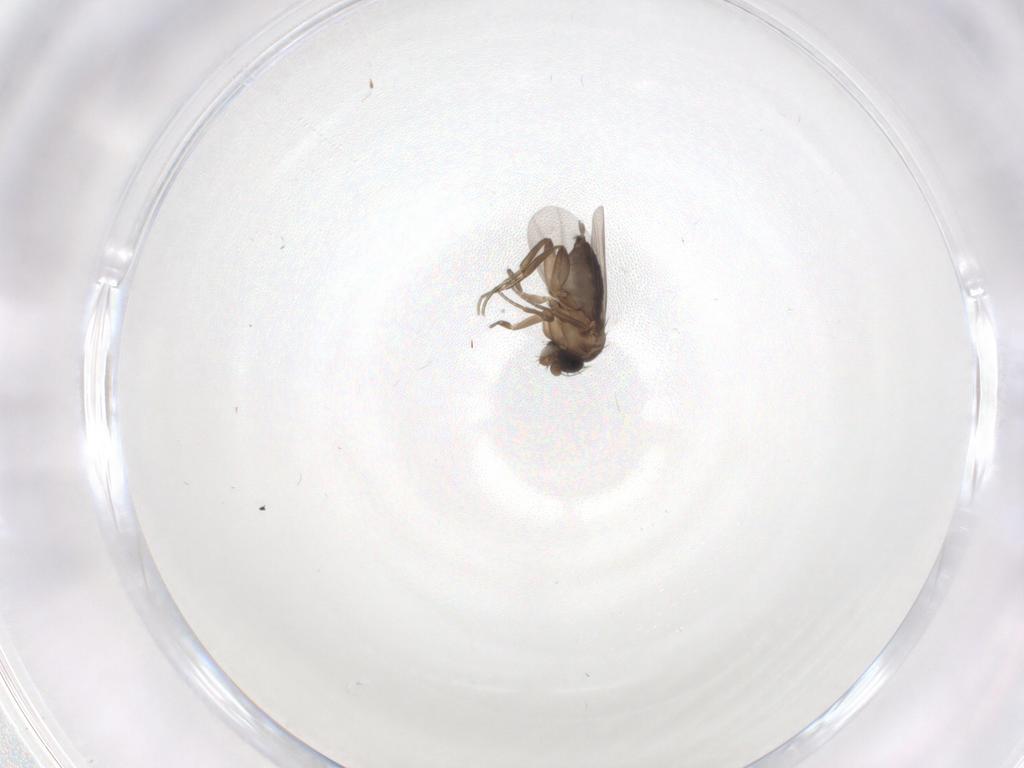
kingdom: Animalia
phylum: Arthropoda
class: Insecta
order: Diptera
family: Phoridae
